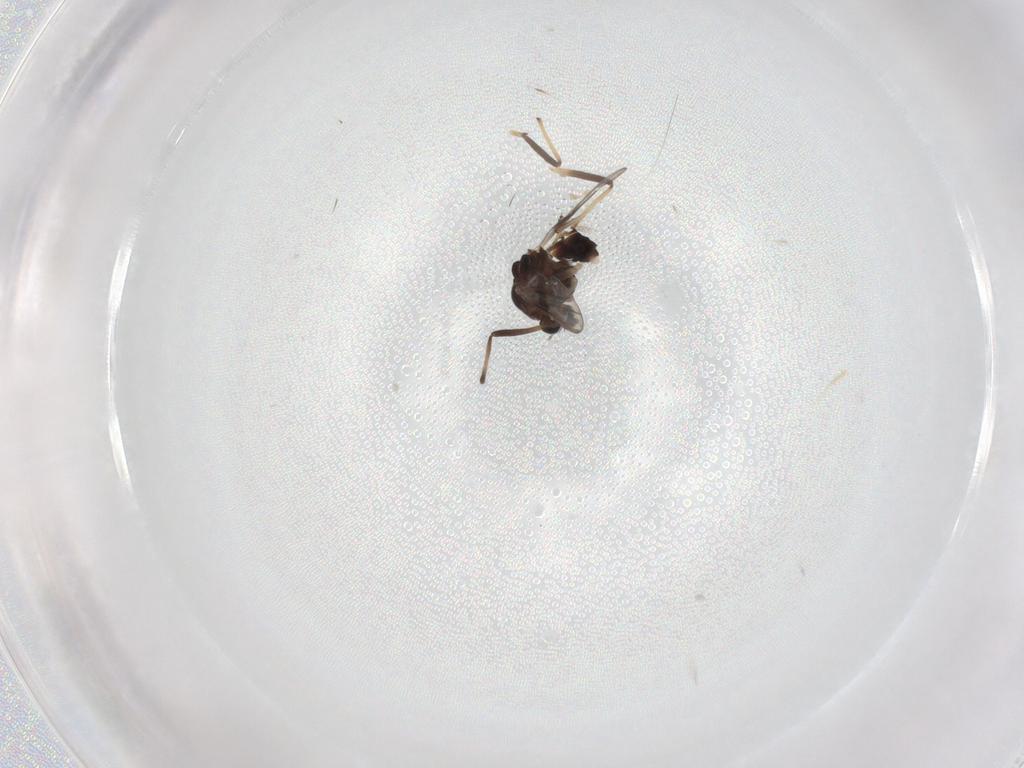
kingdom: Animalia
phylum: Arthropoda
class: Insecta
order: Diptera
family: Chironomidae
